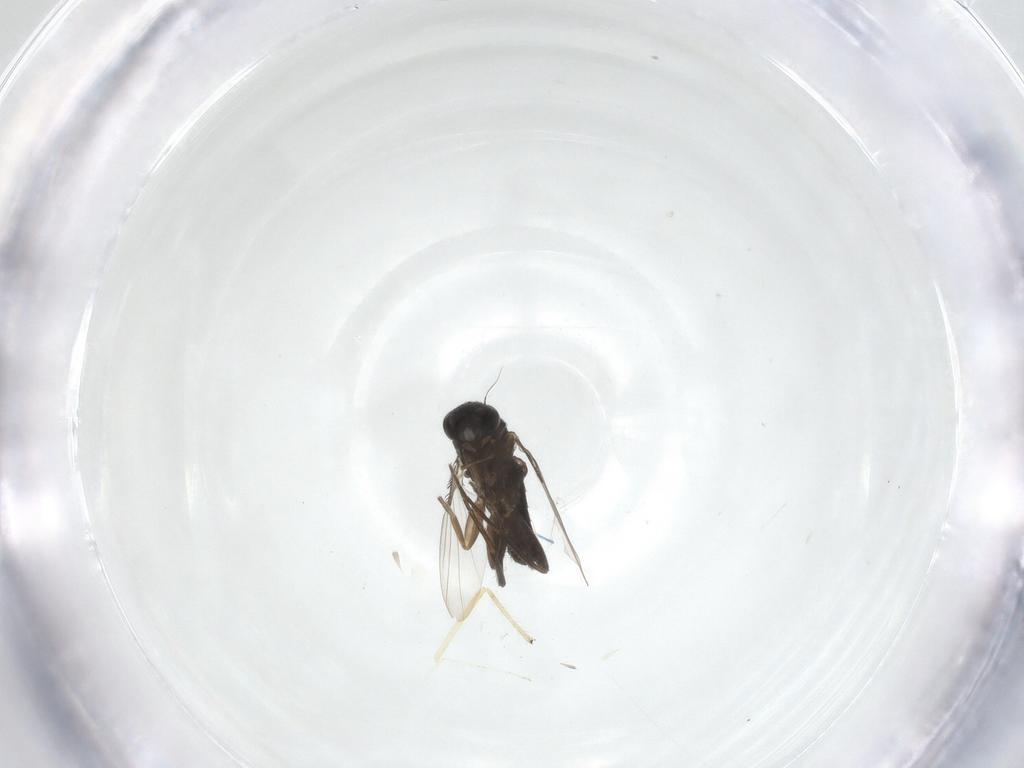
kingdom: Animalia
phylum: Arthropoda
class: Insecta
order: Diptera
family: Chironomidae
